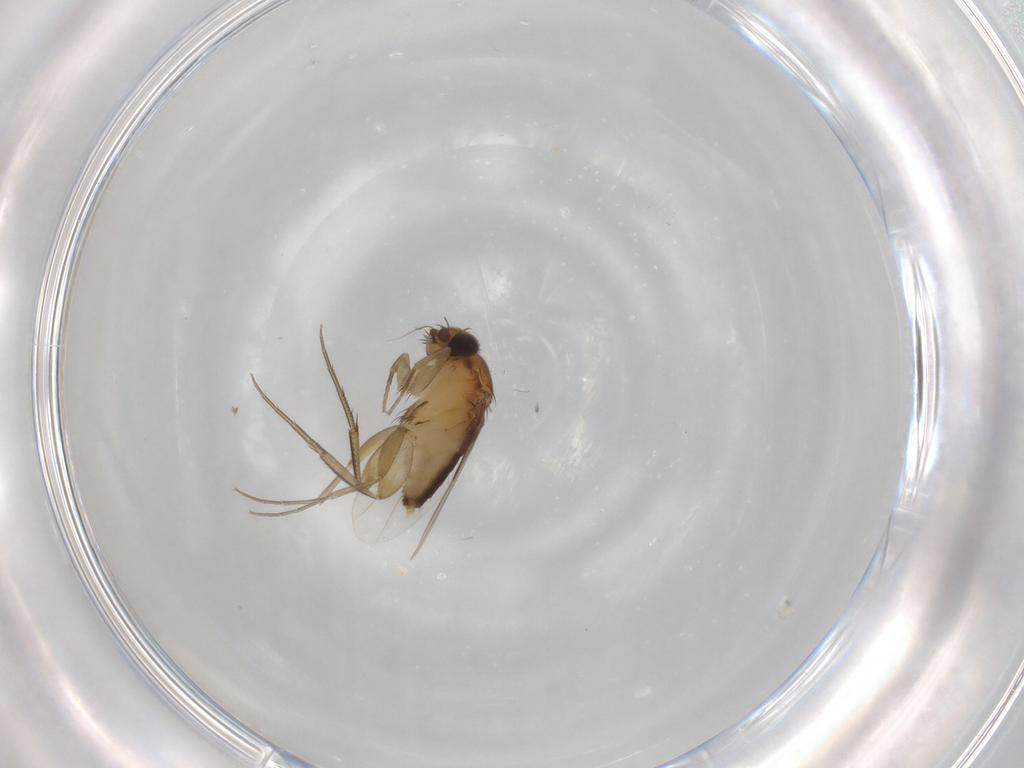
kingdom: Animalia
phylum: Arthropoda
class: Insecta
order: Diptera
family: Phoridae
